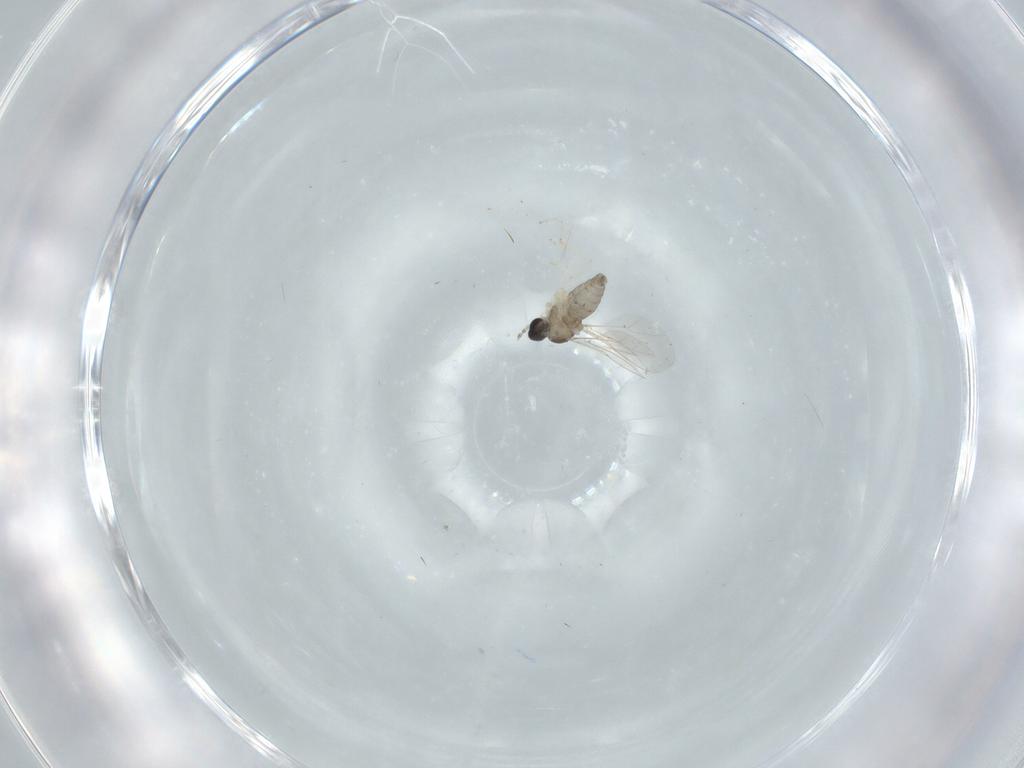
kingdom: Animalia
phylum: Arthropoda
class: Insecta
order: Diptera
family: Cecidomyiidae
